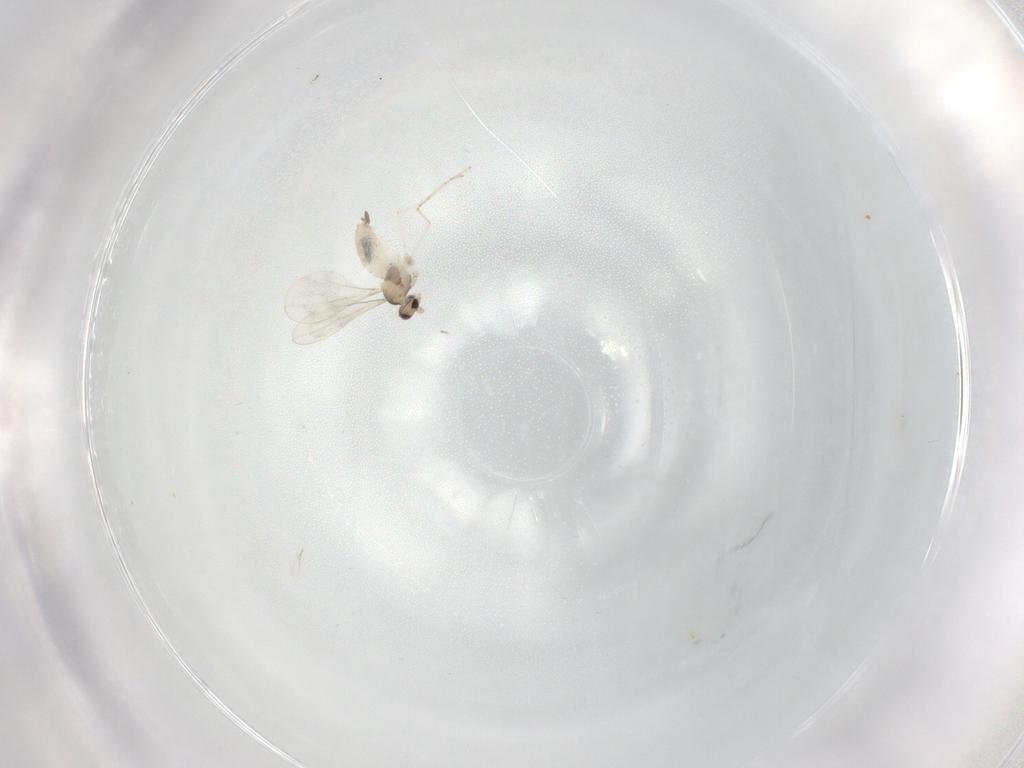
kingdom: Animalia
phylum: Arthropoda
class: Insecta
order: Diptera
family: Cecidomyiidae
